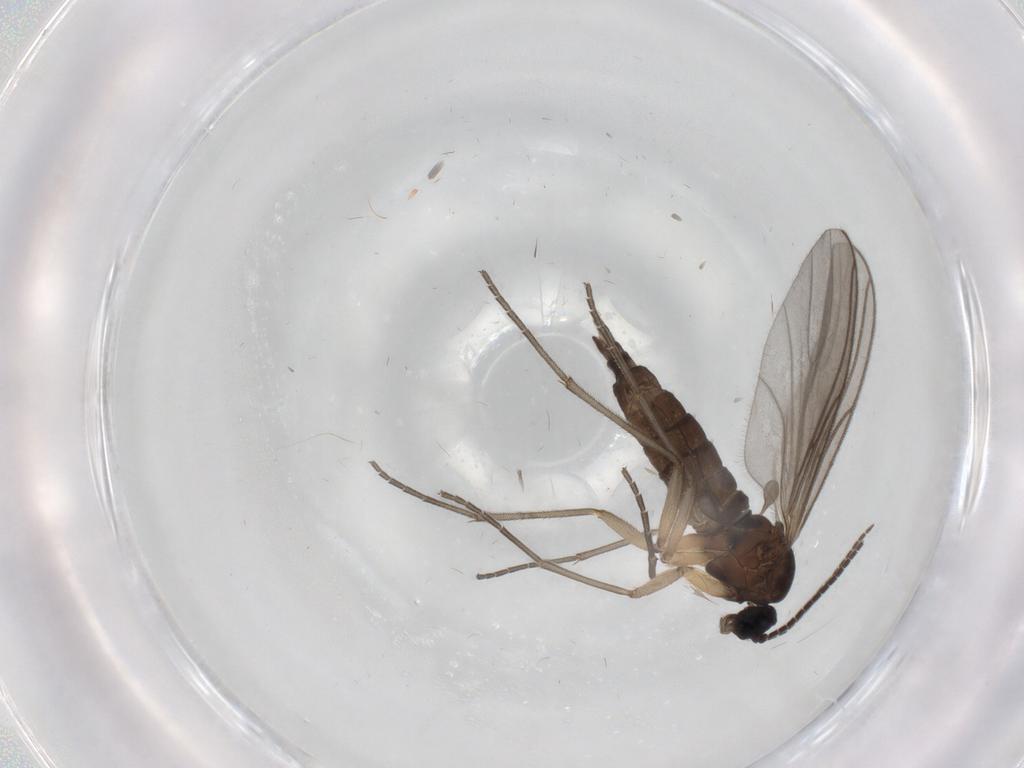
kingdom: Animalia
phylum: Arthropoda
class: Insecta
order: Diptera
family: Sciaridae
